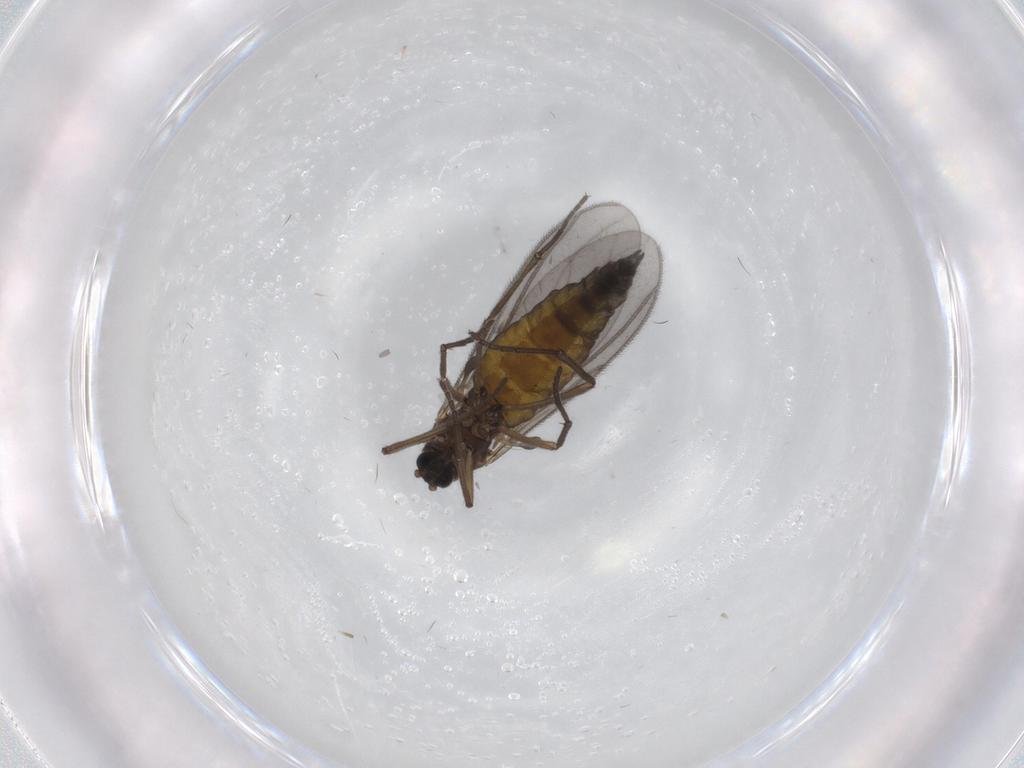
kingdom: Animalia
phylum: Arthropoda
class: Insecta
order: Diptera
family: Sciaridae
